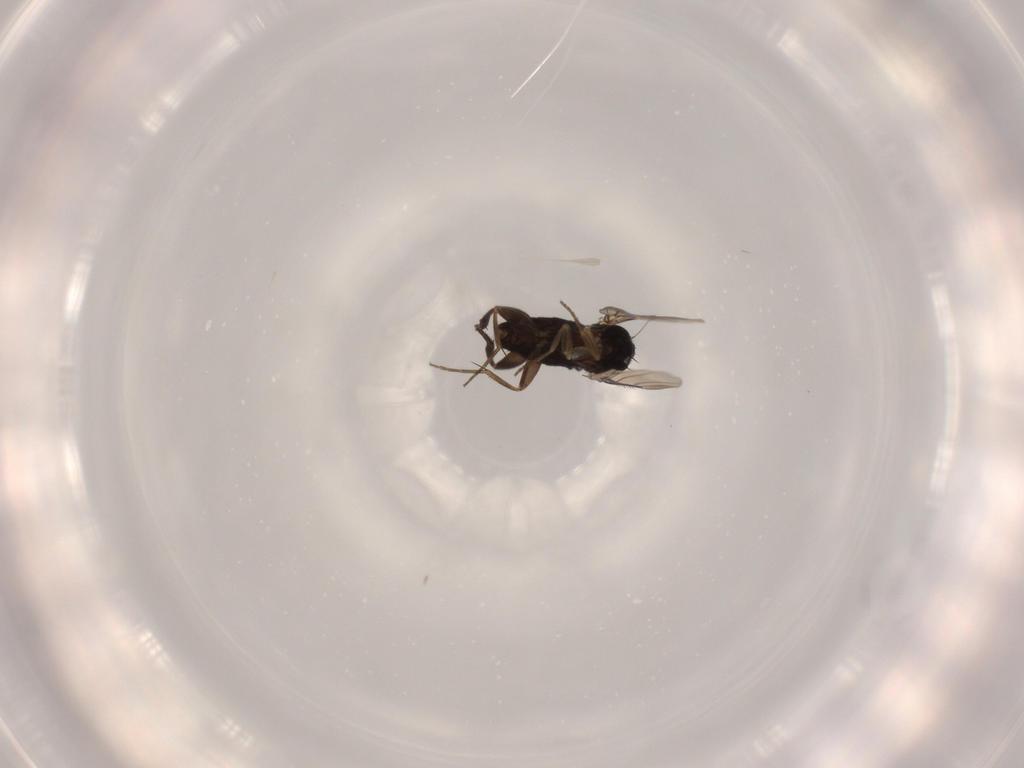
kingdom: Animalia
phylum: Arthropoda
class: Insecta
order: Diptera
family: Phoridae
